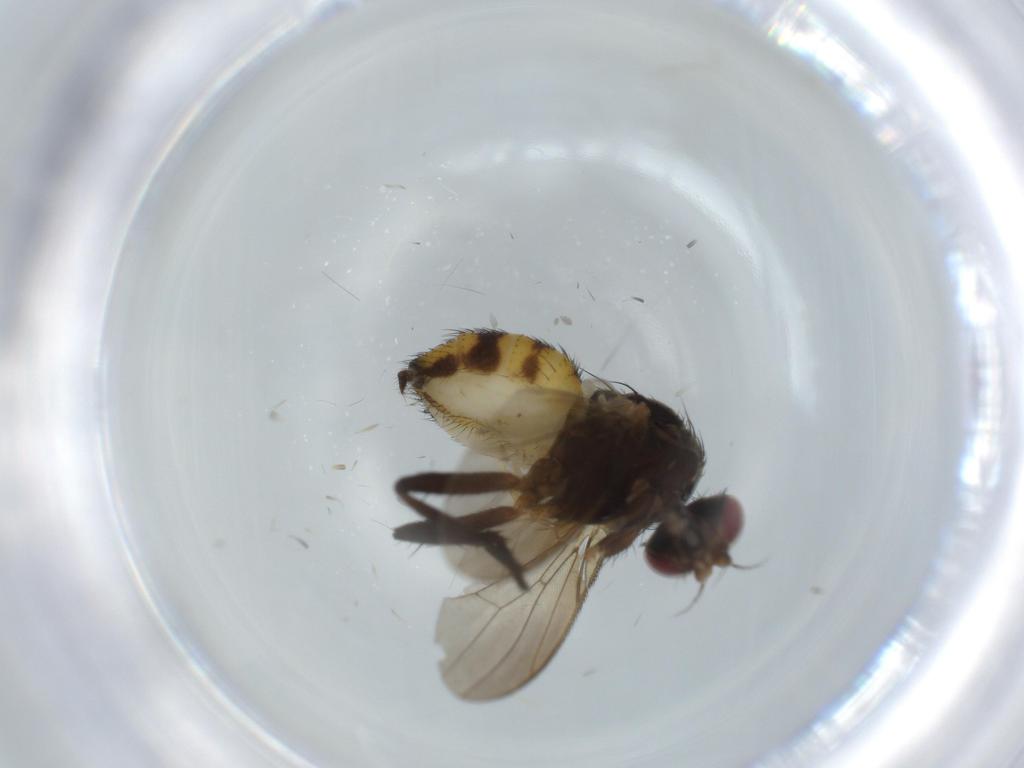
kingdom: Animalia
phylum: Arthropoda
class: Insecta
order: Diptera
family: Anthomyiidae
